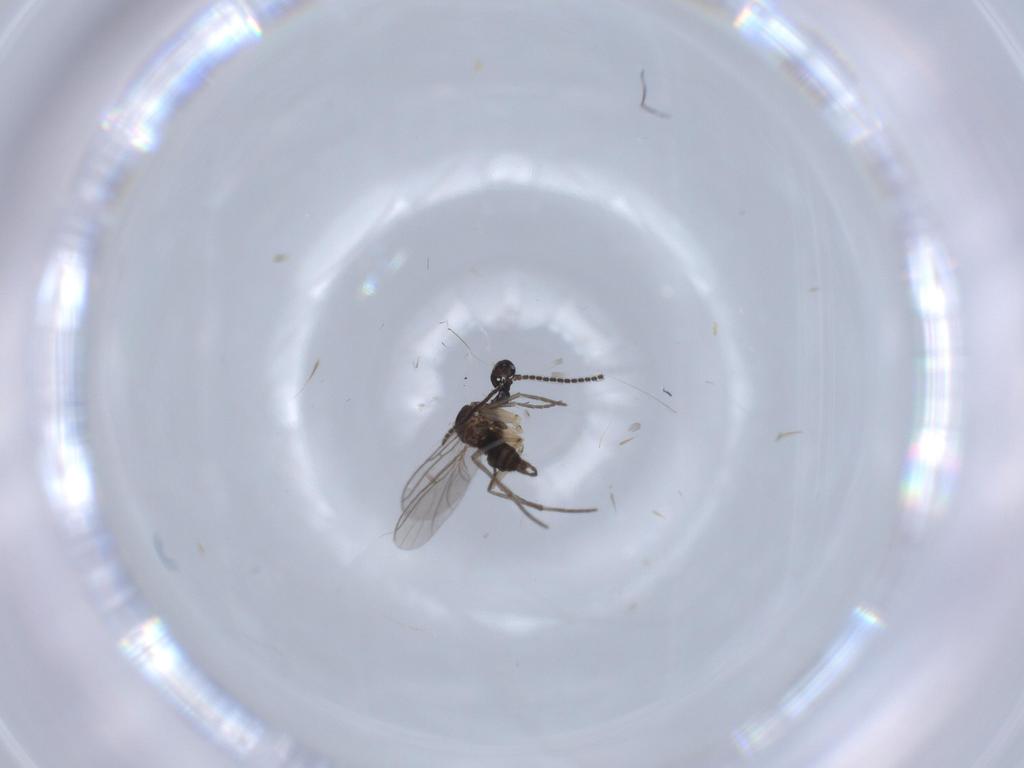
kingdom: Animalia
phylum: Arthropoda
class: Insecta
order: Diptera
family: Sciaridae
